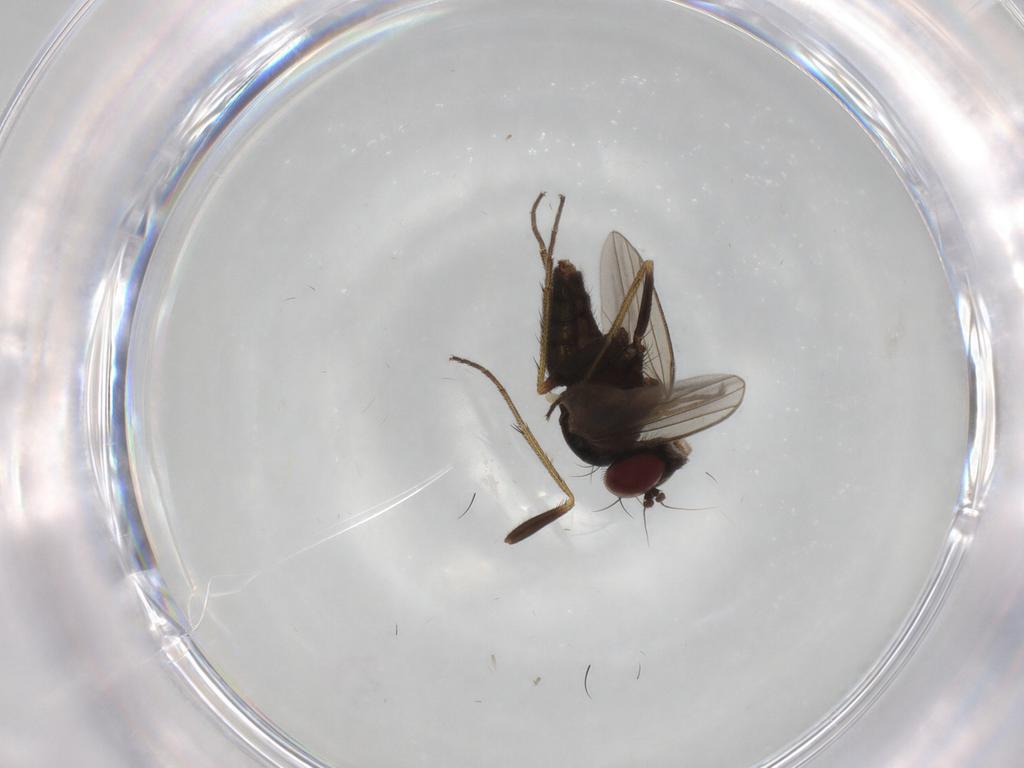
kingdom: Animalia
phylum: Arthropoda
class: Insecta
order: Diptera
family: Dolichopodidae
